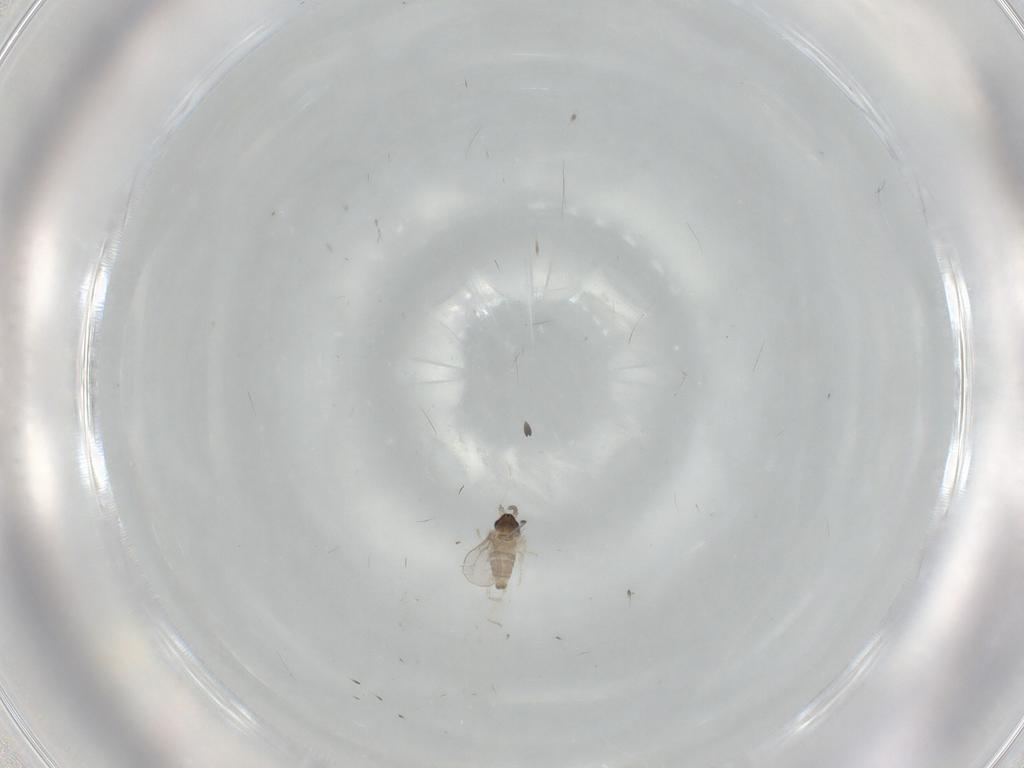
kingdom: Animalia
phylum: Arthropoda
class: Insecta
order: Diptera
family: Cecidomyiidae
